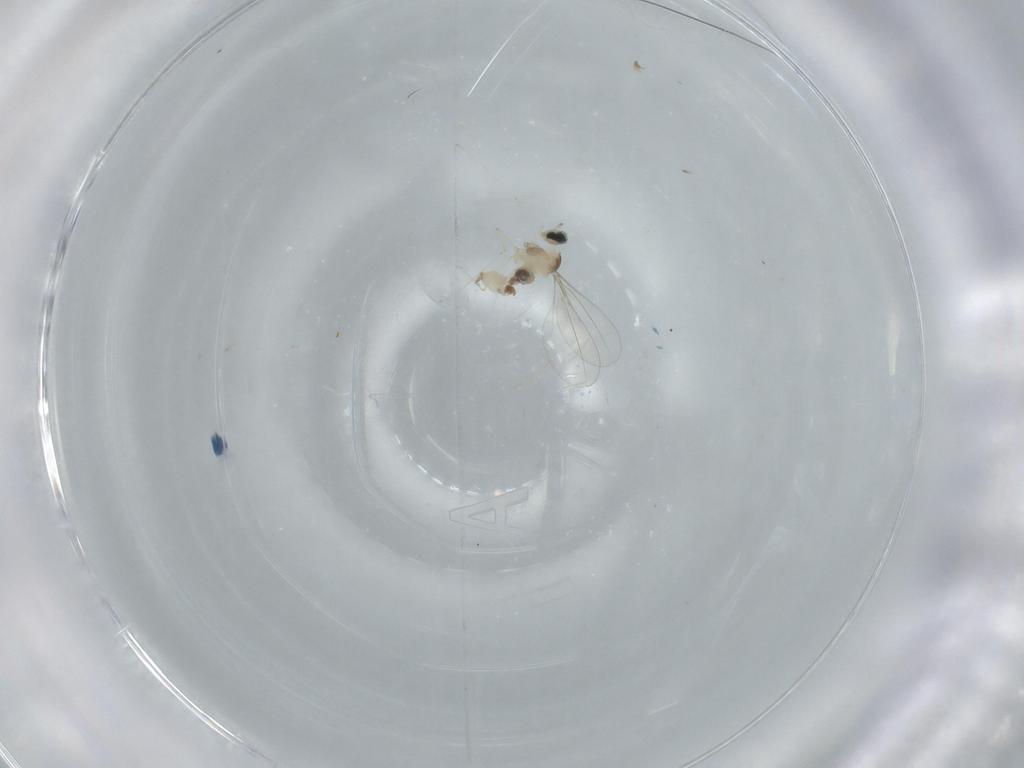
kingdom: Animalia
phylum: Arthropoda
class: Insecta
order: Diptera
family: Cecidomyiidae
